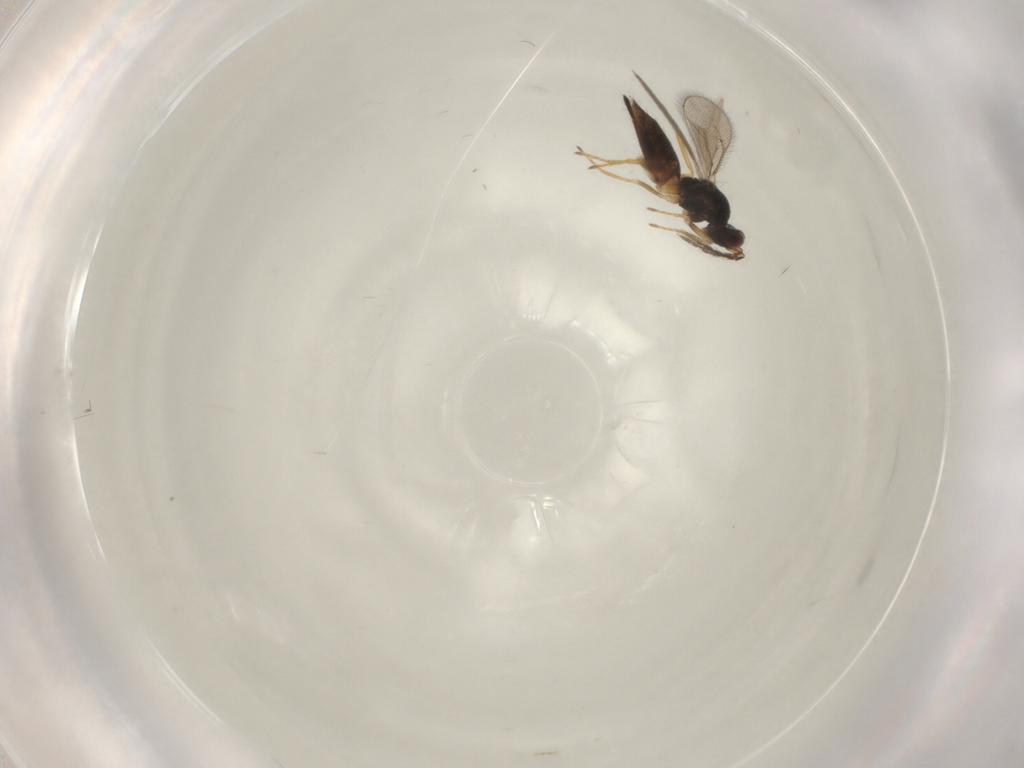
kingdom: Animalia
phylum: Arthropoda
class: Insecta
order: Hymenoptera
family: Eulophidae
